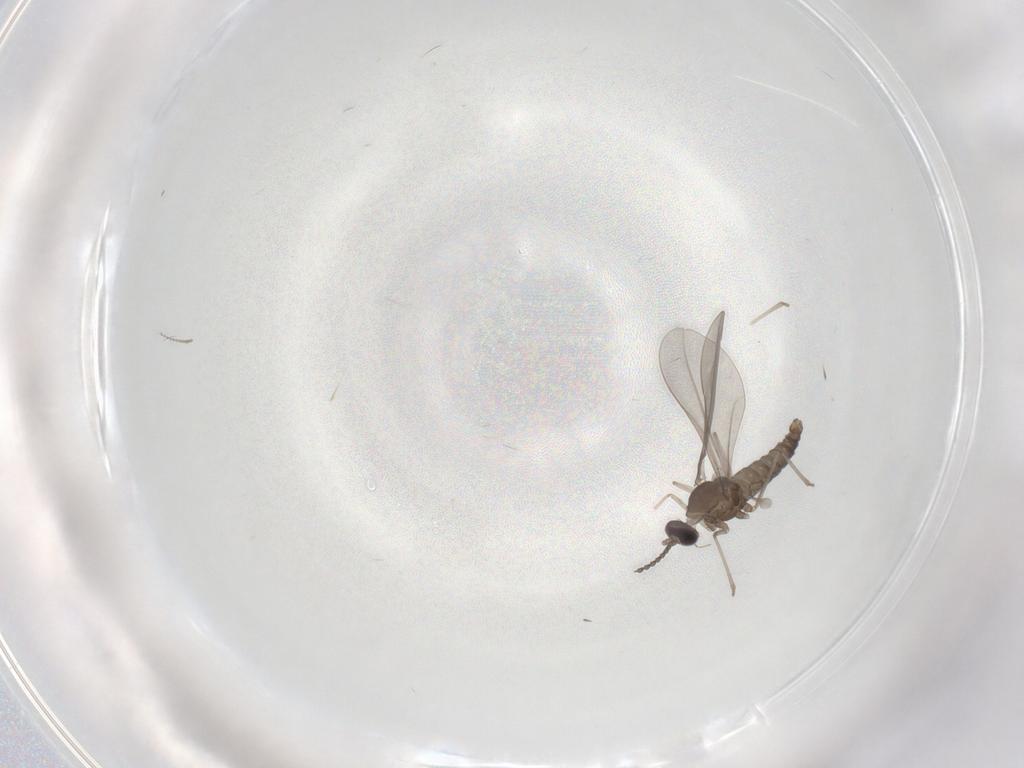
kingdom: Animalia
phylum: Arthropoda
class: Insecta
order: Diptera
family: Cecidomyiidae
